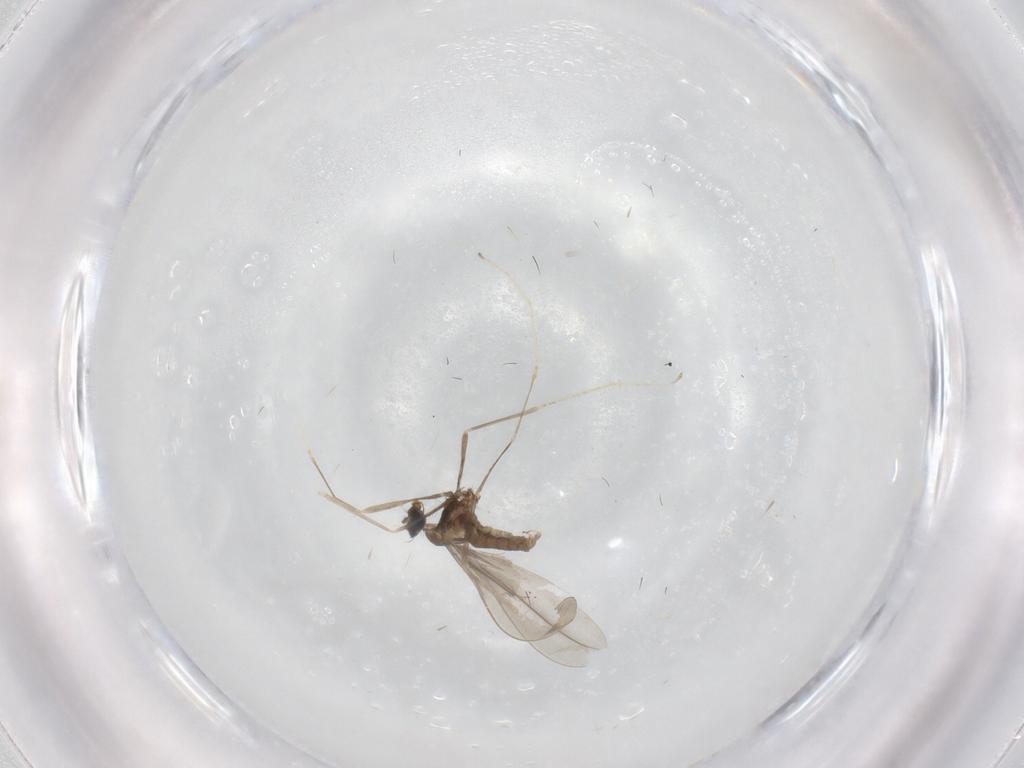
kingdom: Animalia
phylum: Arthropoda
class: Insecta
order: Diptera
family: Cecidomyiidae
